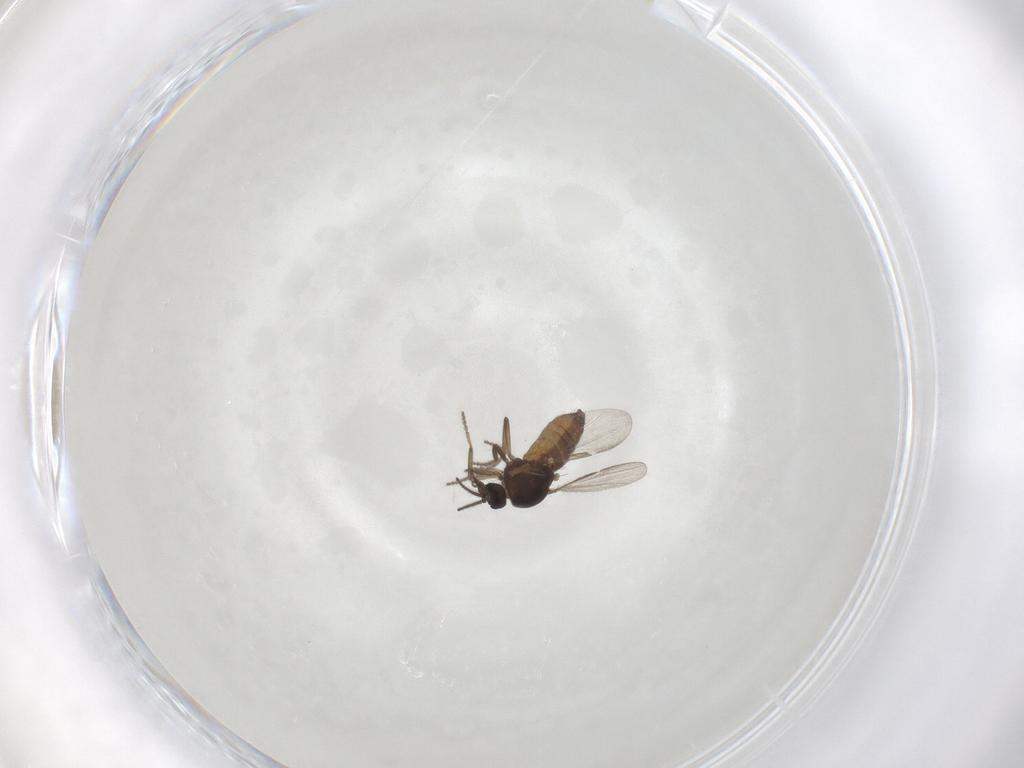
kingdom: Animalia
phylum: Arthropoda
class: Insecta
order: Diptera
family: Ceratopogonidae
